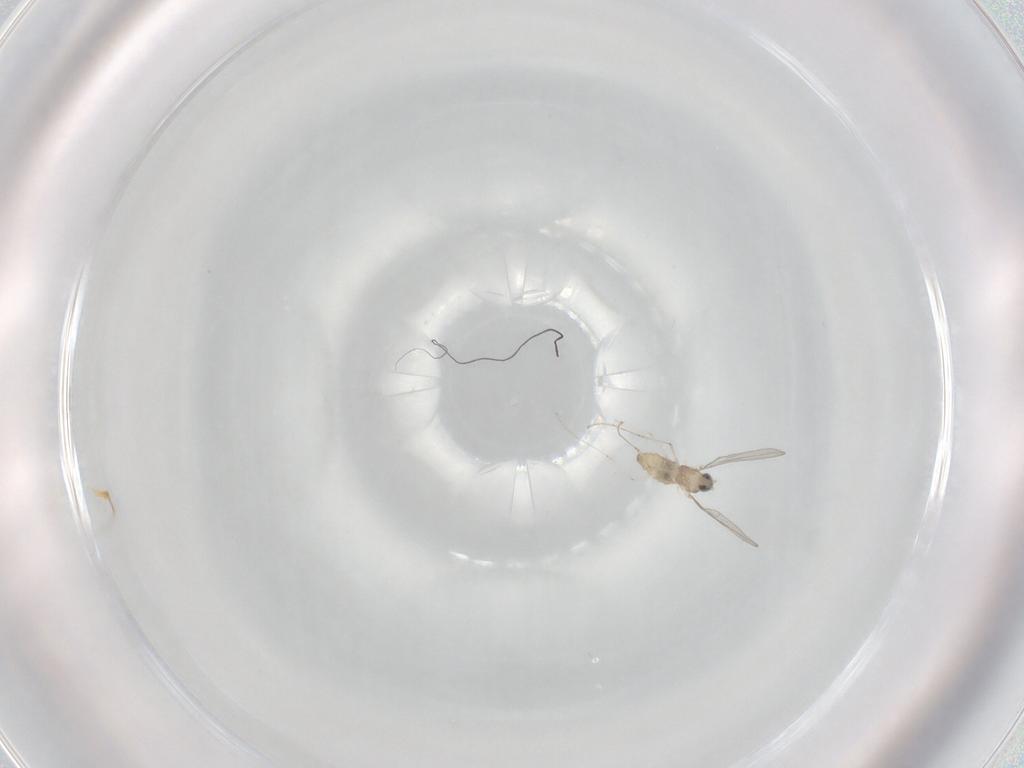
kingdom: Animalia
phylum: Arthropoda
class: Insecta
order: Diptera
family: Cecidomyiidae
